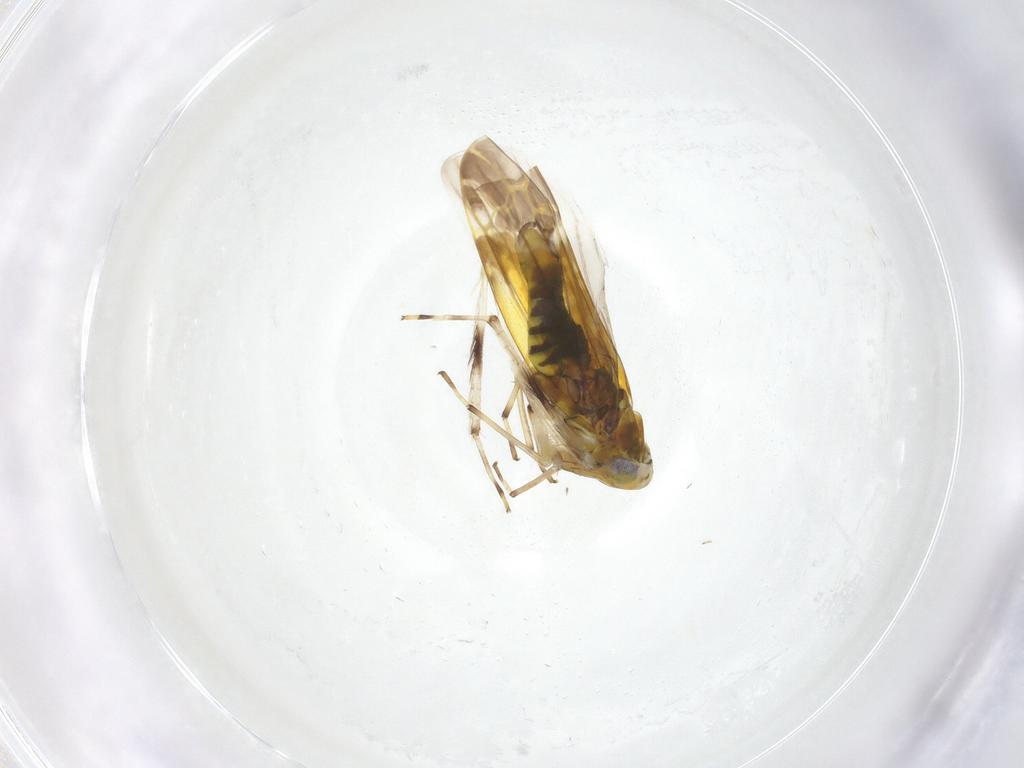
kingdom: Animalia
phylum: Arthropoda
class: Insecta
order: Hemiptera
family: Cicadellidae
